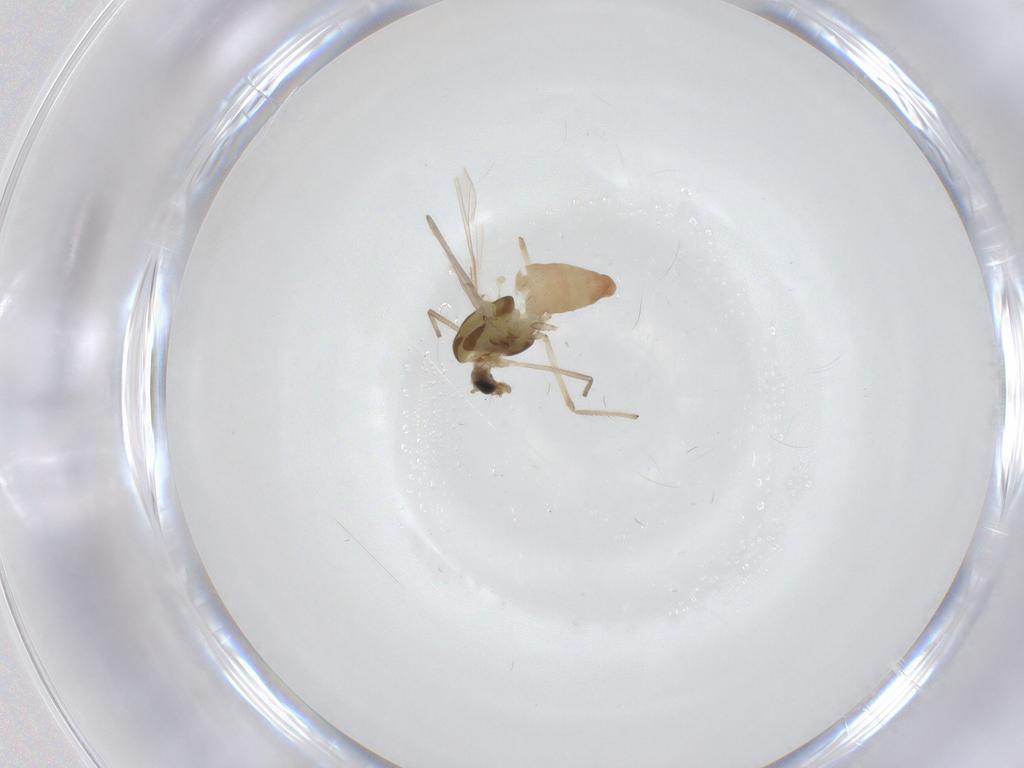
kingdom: Animalia
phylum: Arthropoda
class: Insecta
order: Diptera
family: Chironomidae
